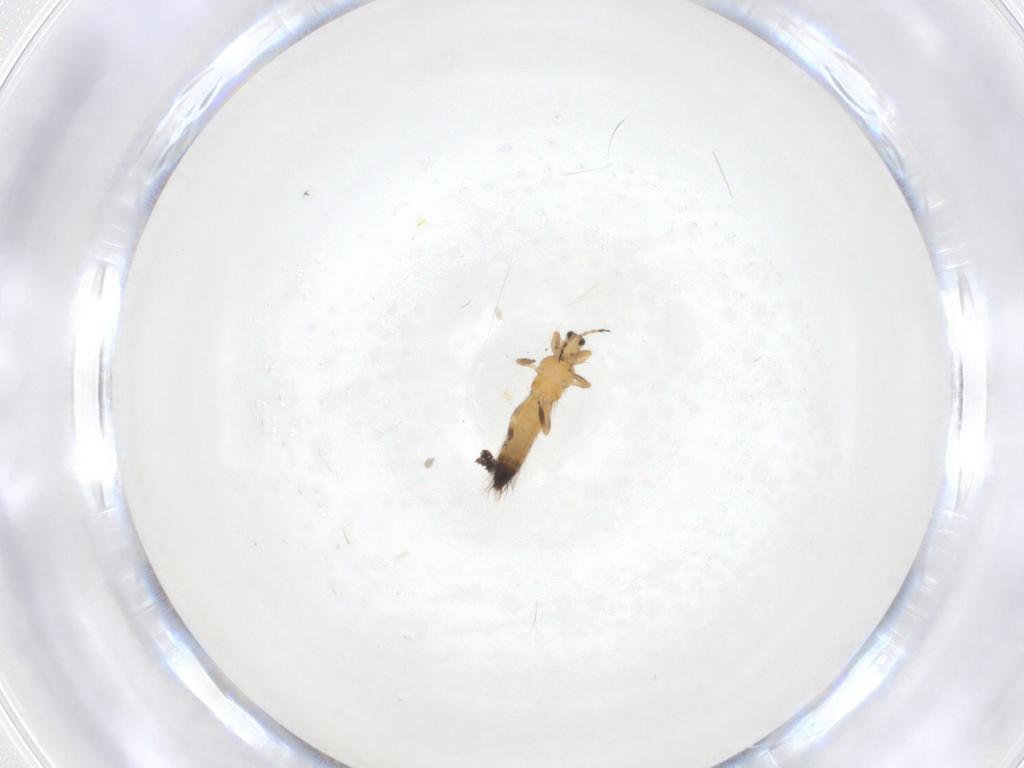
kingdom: Animalia
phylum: Arthropoda
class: Insecta
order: Thysanoptera
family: Thripidae
